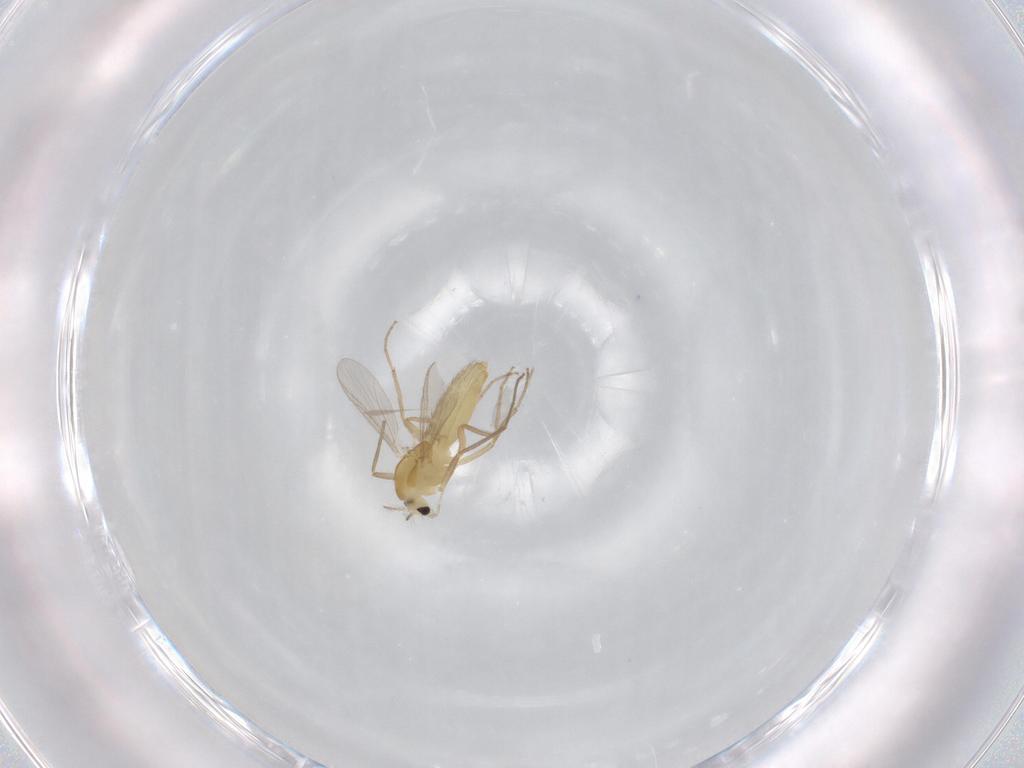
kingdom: Animalia
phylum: Arthropoda
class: Insecta
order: Diptera
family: Chironomidae
